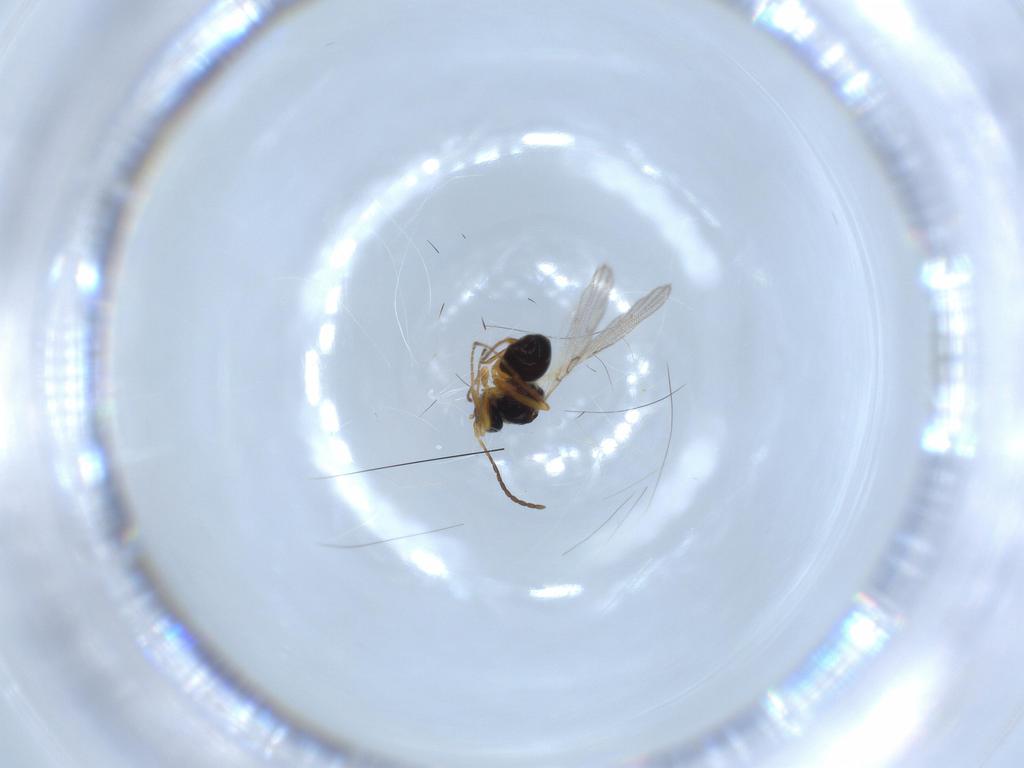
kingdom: Animalia
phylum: Arthropoda
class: Insecta
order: Hymenoptera
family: Figitidae
